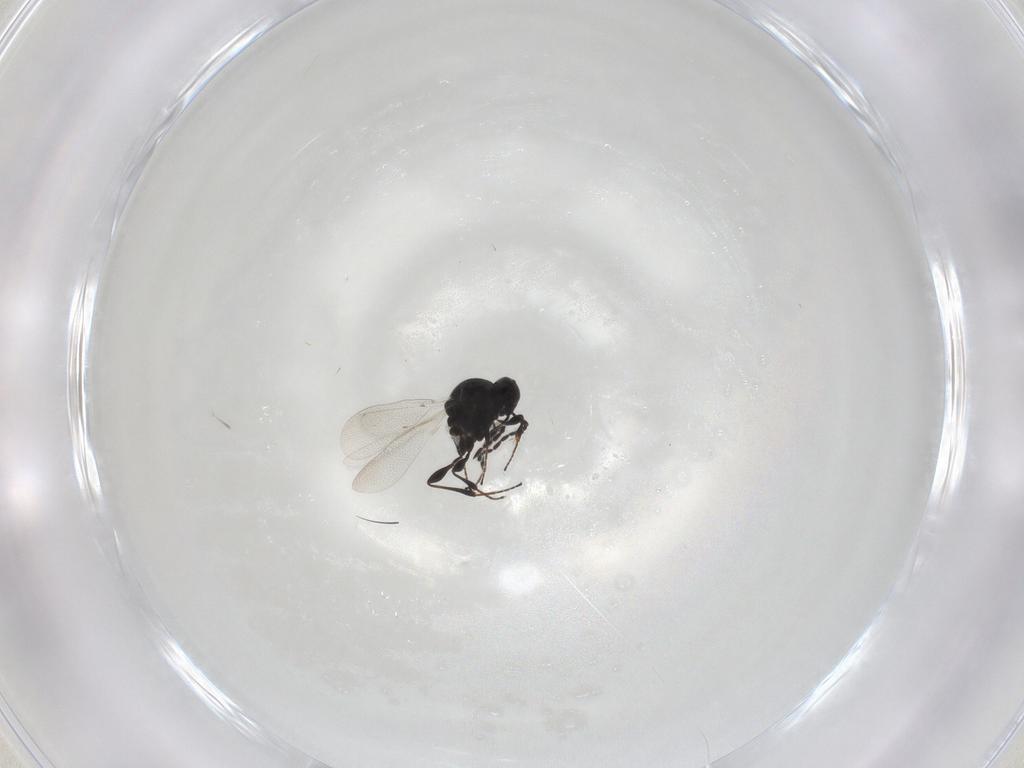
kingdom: Animalia
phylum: Arthropoda
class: Insecta
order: Hymenoptera
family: Platygastridae
